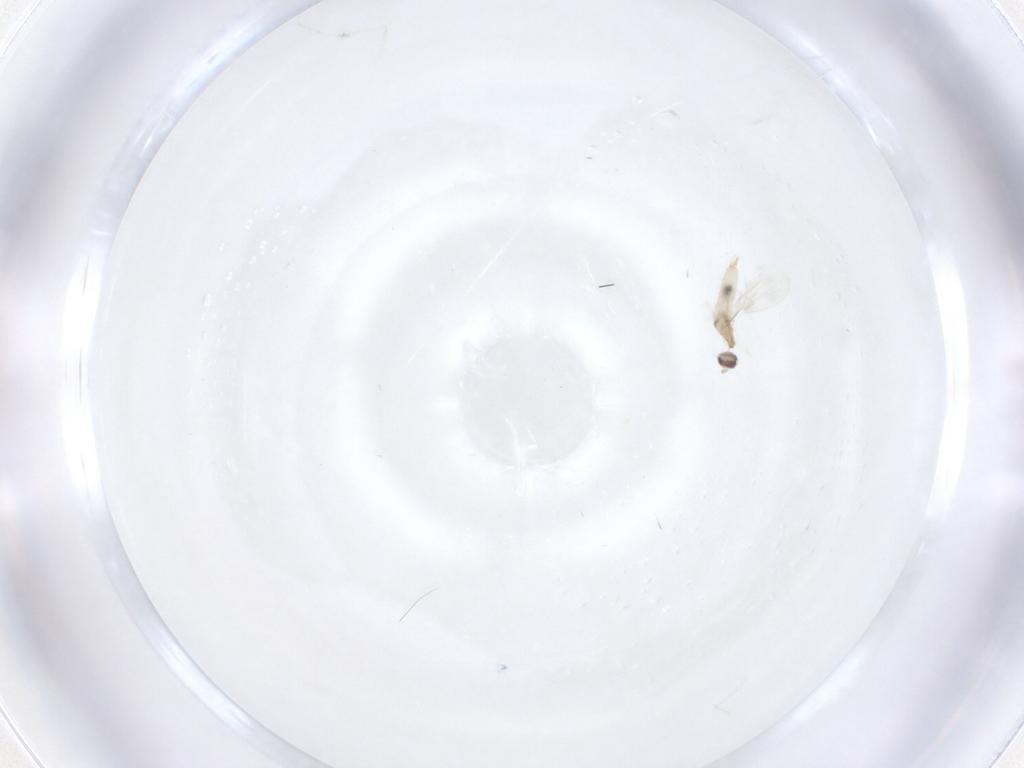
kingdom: Animalia
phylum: Arthropoda
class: Insecta
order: Diptera
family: Cecidomyiidae
